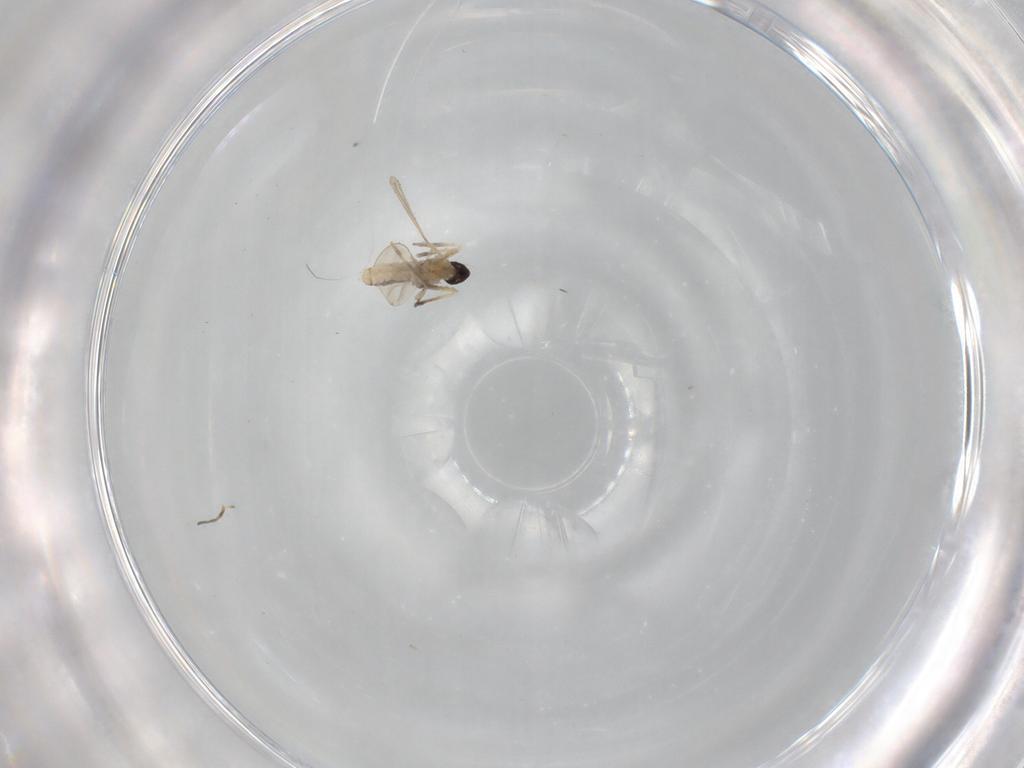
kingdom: Animalia
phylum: Arthropoda
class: Insecta
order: Diptera
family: Cecidomyiidae
